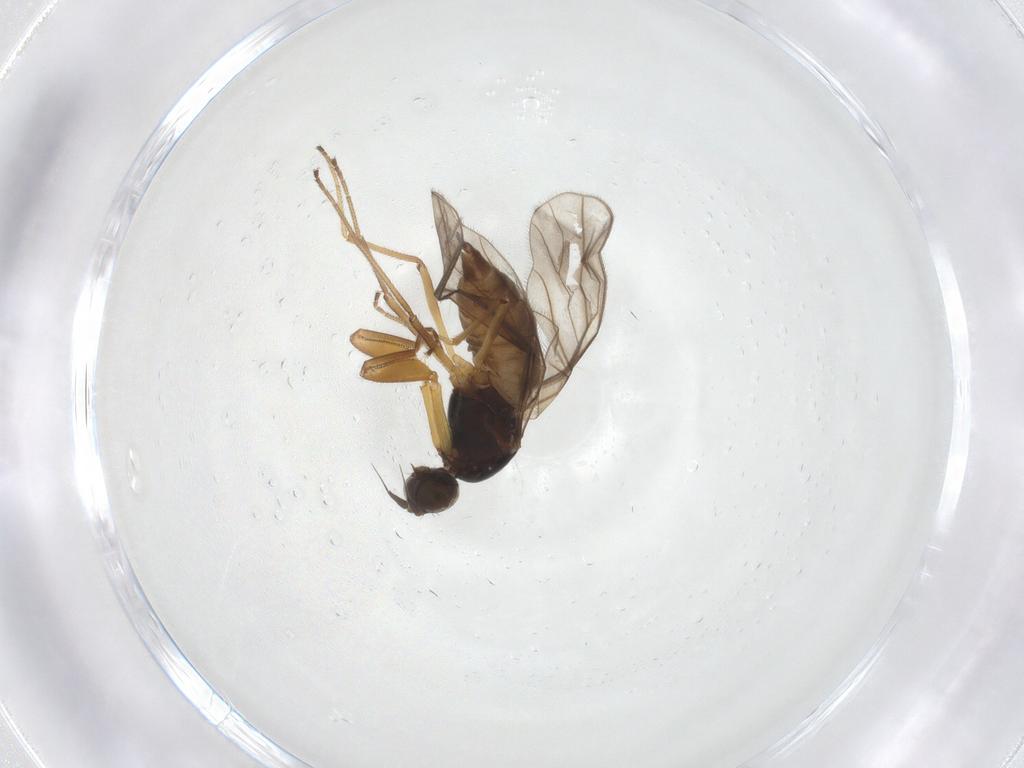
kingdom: Animalia
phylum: Arthropoda
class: Insecta
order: Diptera
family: Empididae
